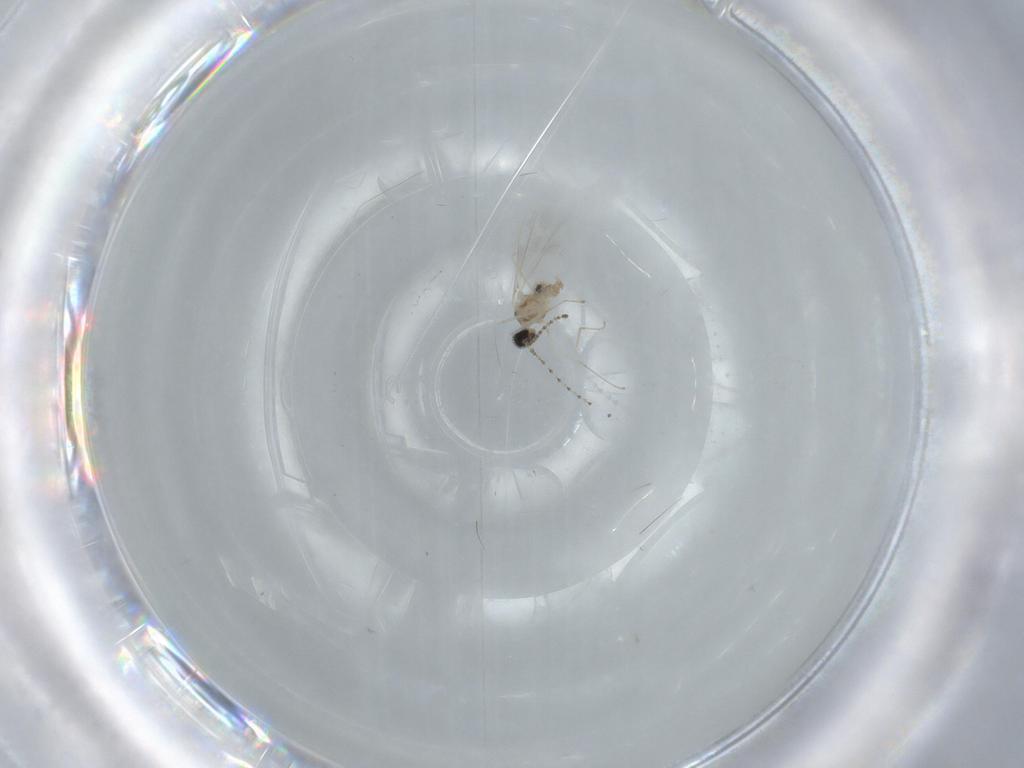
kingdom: Animalia
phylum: Arthropoda
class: Insecta
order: Diptera
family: Cecidomyiidae
